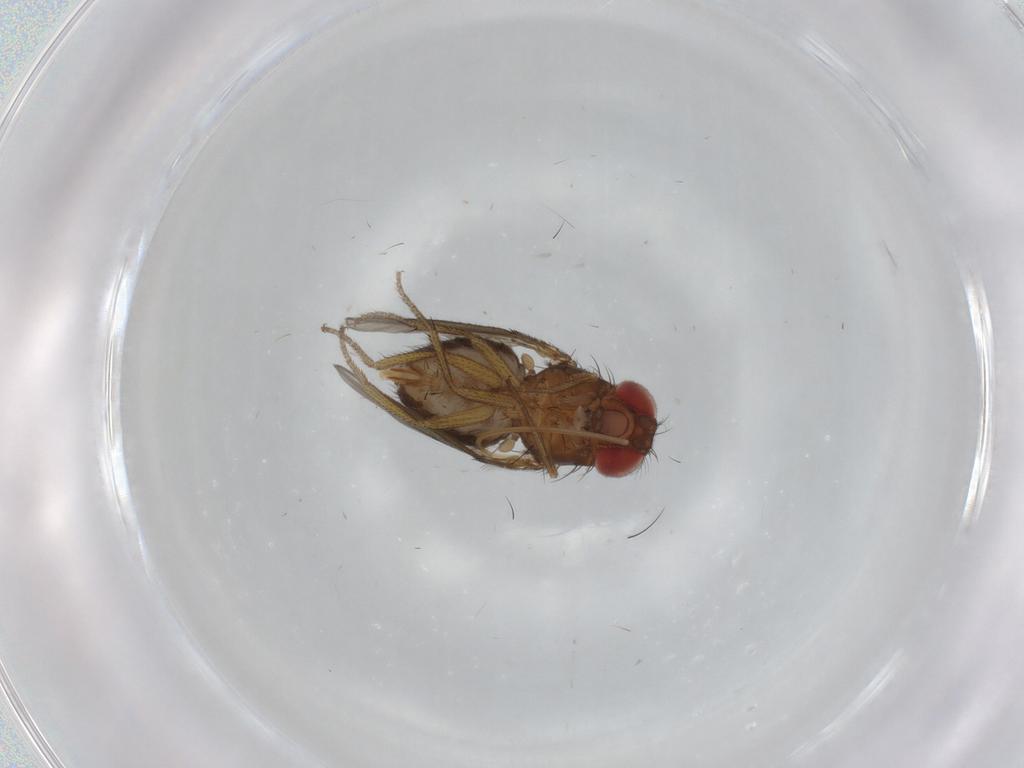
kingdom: Animalia
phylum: Arthropoda
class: Insecta
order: Diptera
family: Drosophilidae
